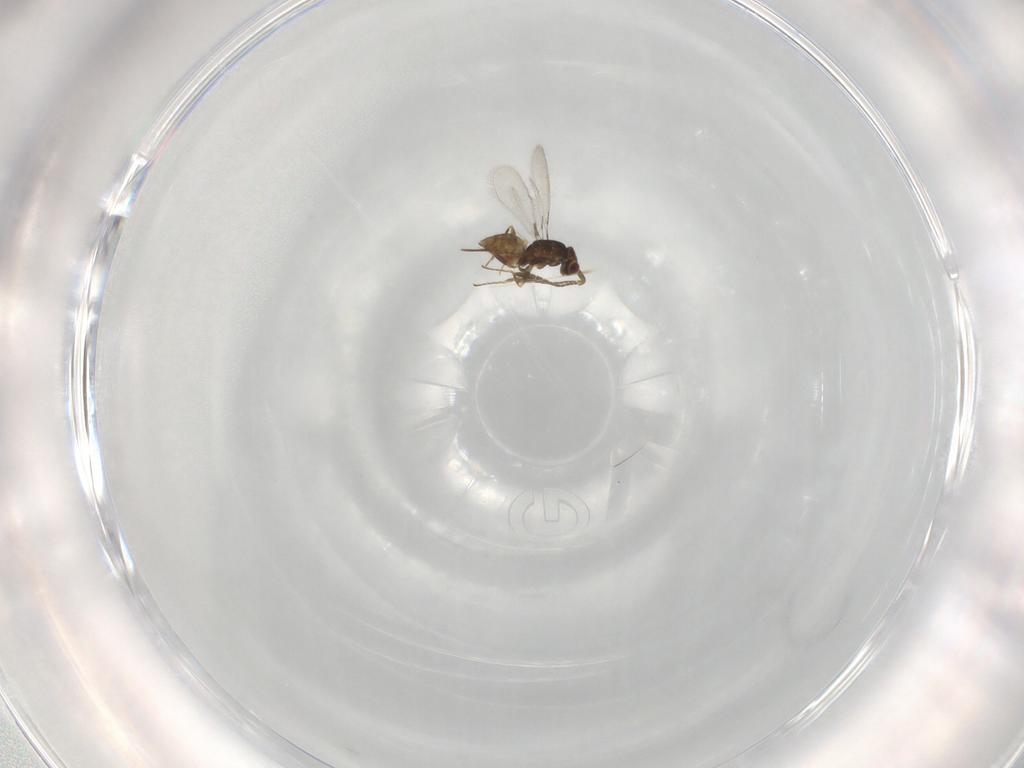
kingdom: Animalia
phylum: Arthropoda
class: Insecta
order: Hymenoptera
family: Mymaridae
